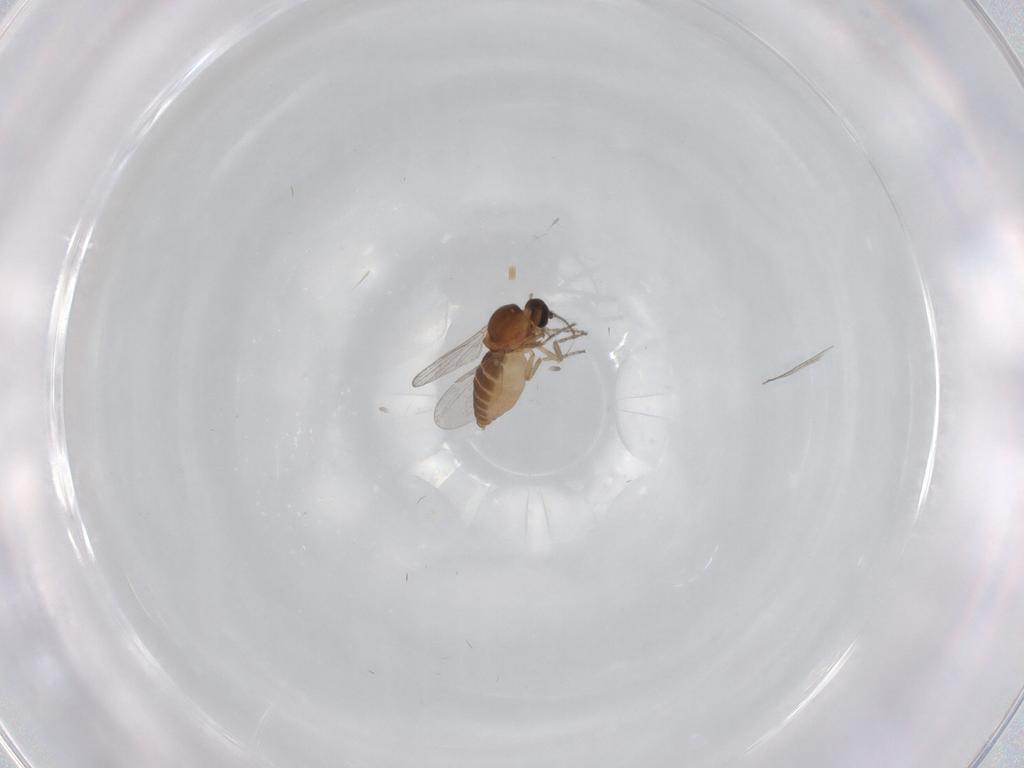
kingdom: Animalia
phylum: Arthropoda
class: Insecta
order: Diptera
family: Ceratopogonidae
